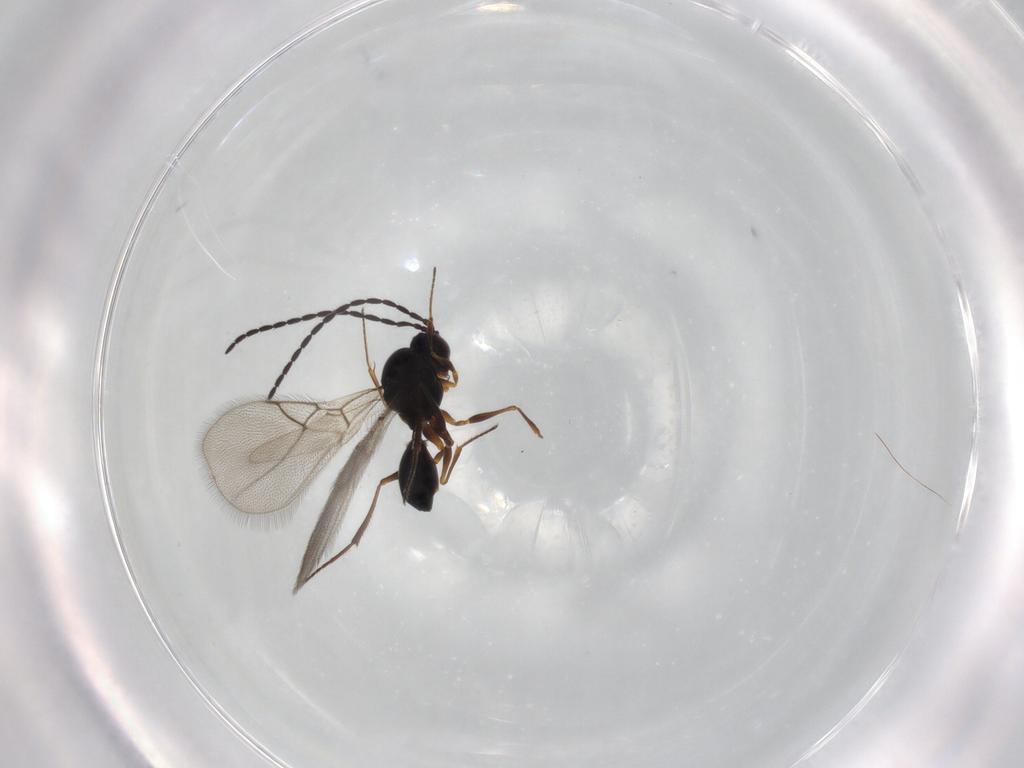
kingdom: Animalia
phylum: Arthropoda
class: Insecta
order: Hymenoptera
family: Figitidae
